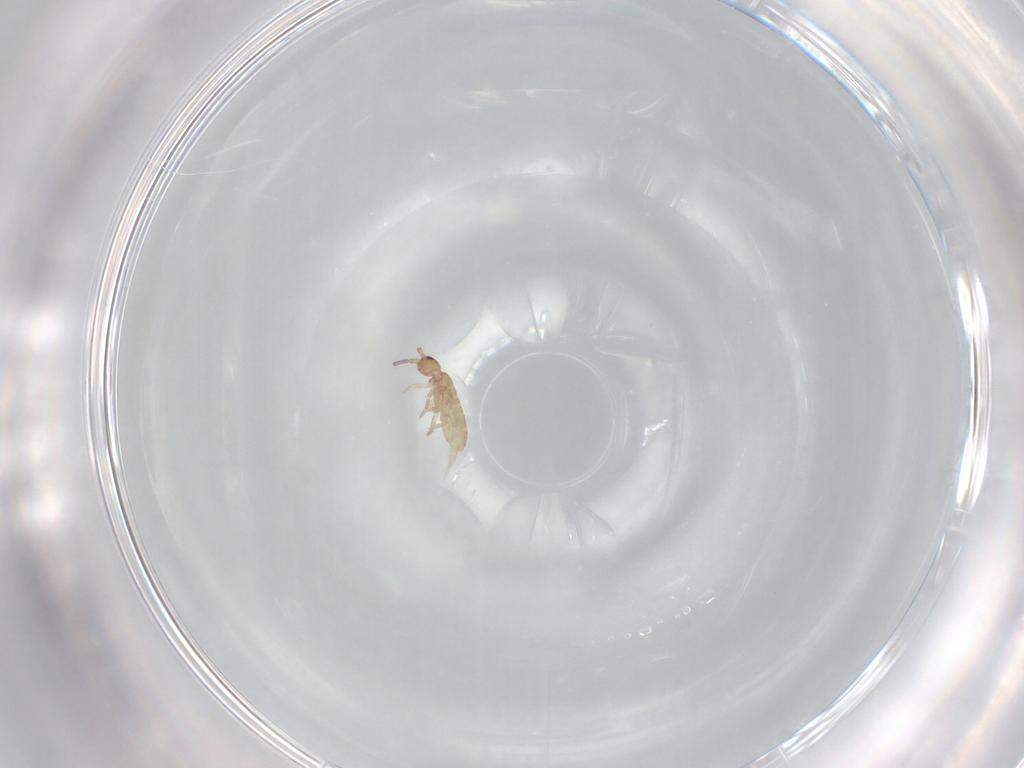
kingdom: Animalia
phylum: Arthropoda
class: Collembola
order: Entomobryomorpha
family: Tomoceridae
